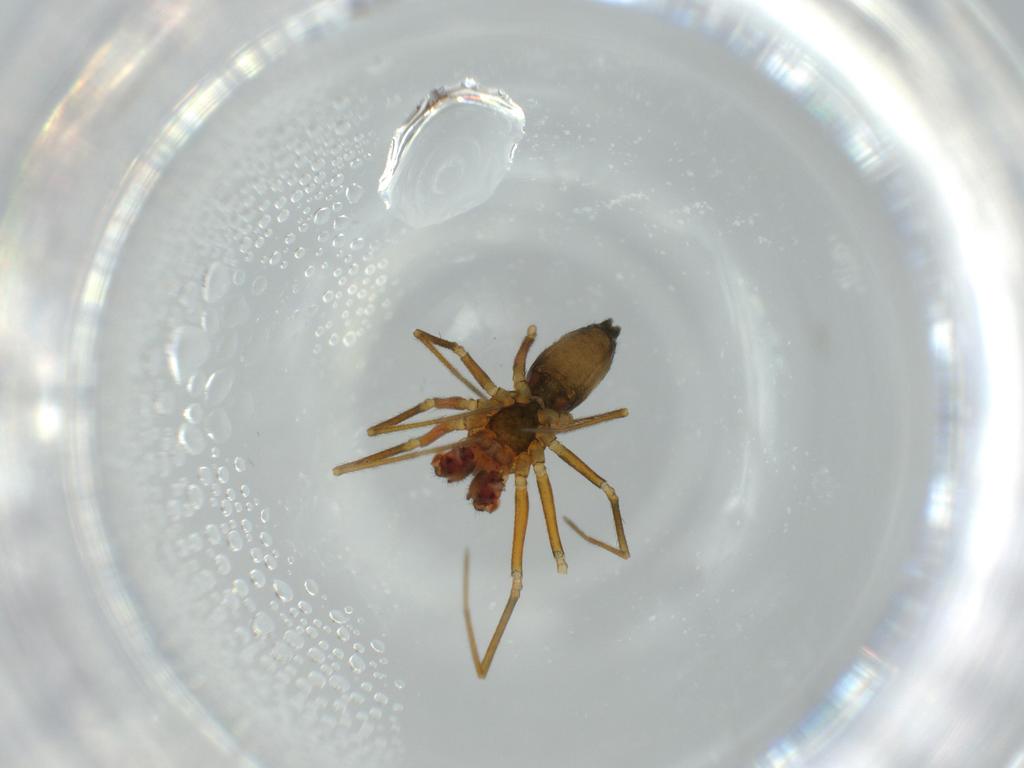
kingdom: Animalia
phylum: Arthropoda
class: Arachnida
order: Araneae
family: Linyphiidae
